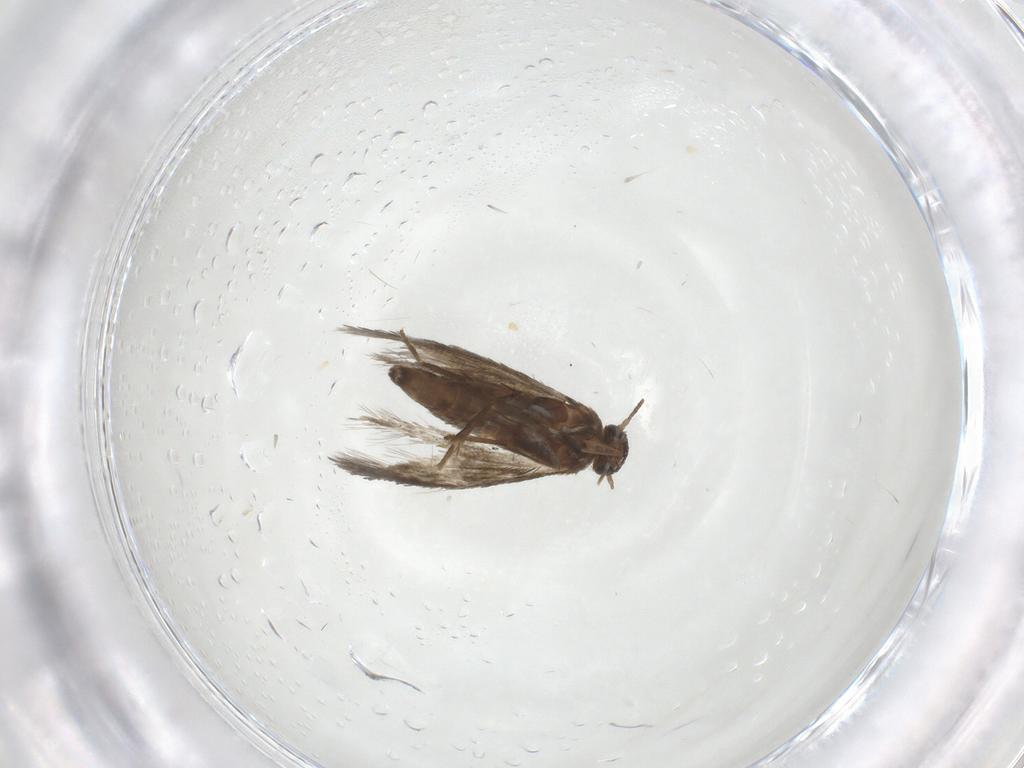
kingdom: Animalia
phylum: Arthropoda
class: Insecta
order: Lepidoptera
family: Heliozelidae
